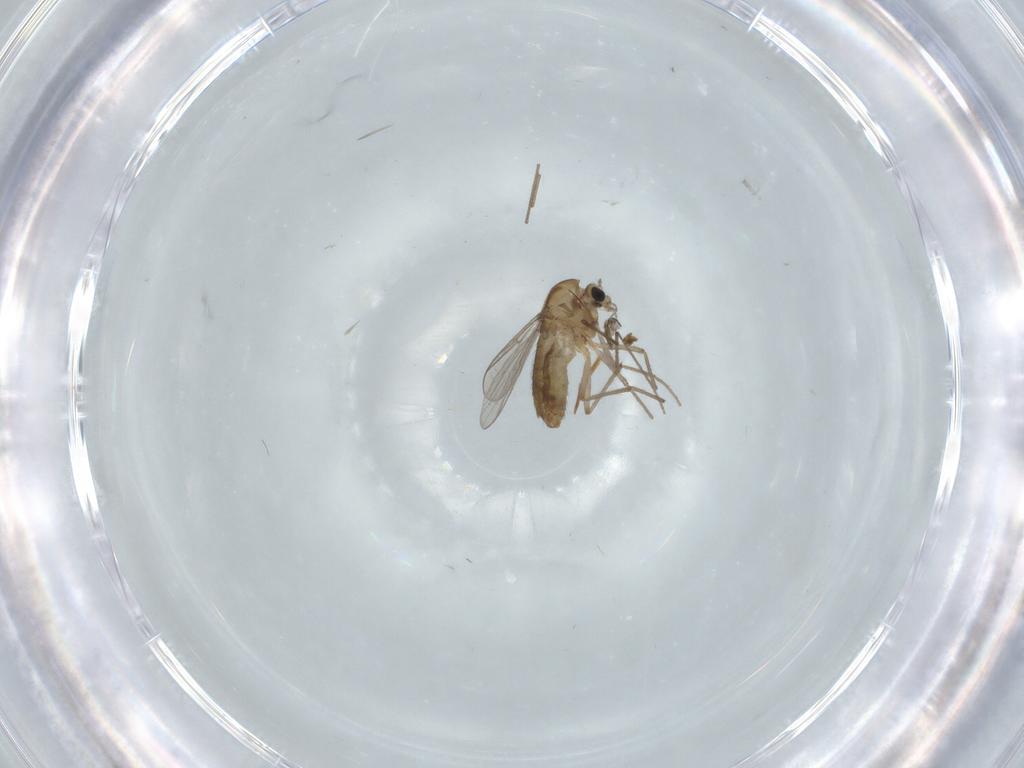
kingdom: Animalia
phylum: Arthropoda
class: Insecta
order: Diptera
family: Chironomidae
